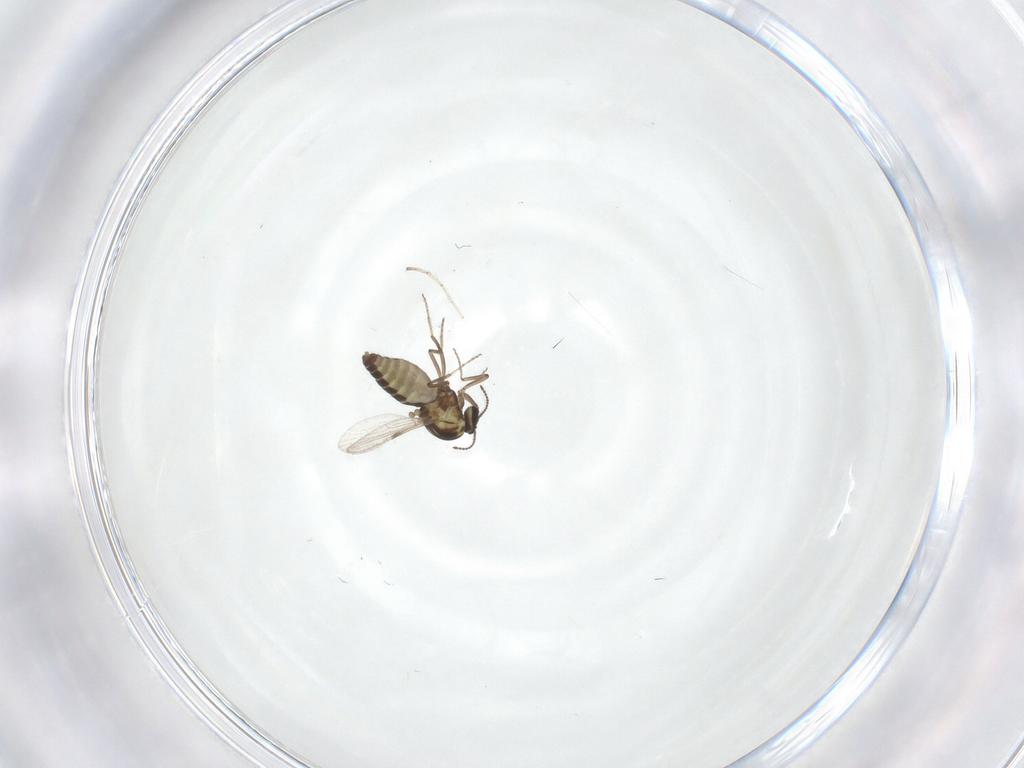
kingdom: Animalia
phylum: Arthropoda
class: Insecta
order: Diptera
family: Ceratopogonidae
